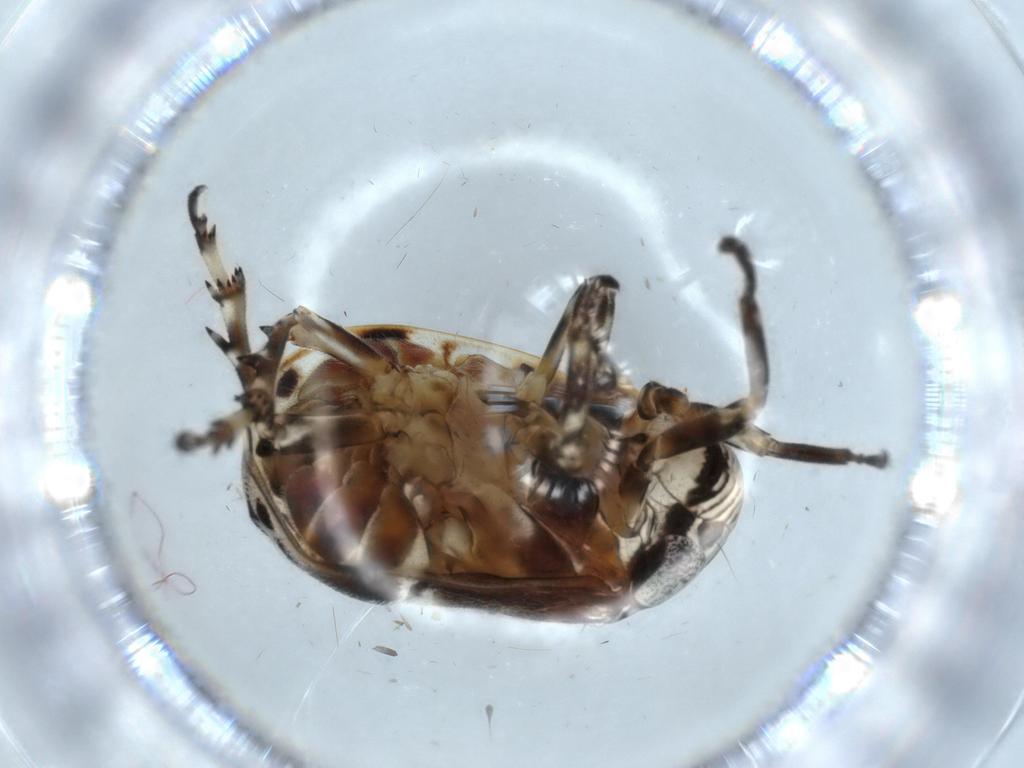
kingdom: Animalia
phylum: Arthropoda
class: Insecta
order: Hemiptera
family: Clastopteridae
